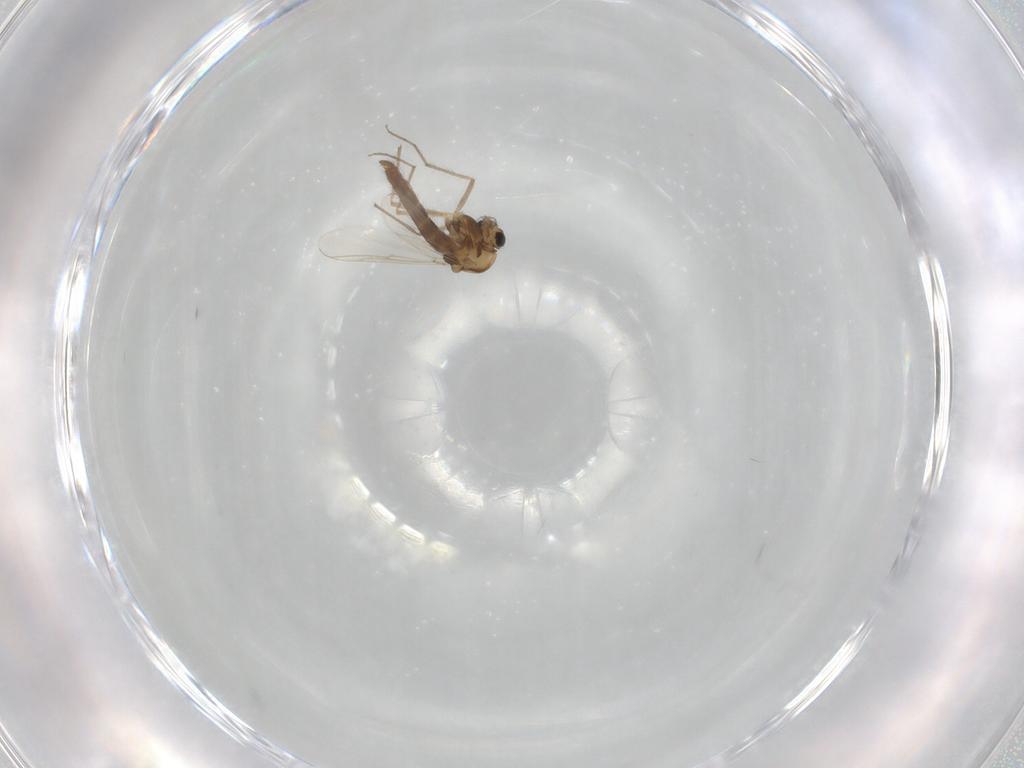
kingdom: Animalia
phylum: Arthropoda
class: Insecta
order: Diptera
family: Chironomidae
